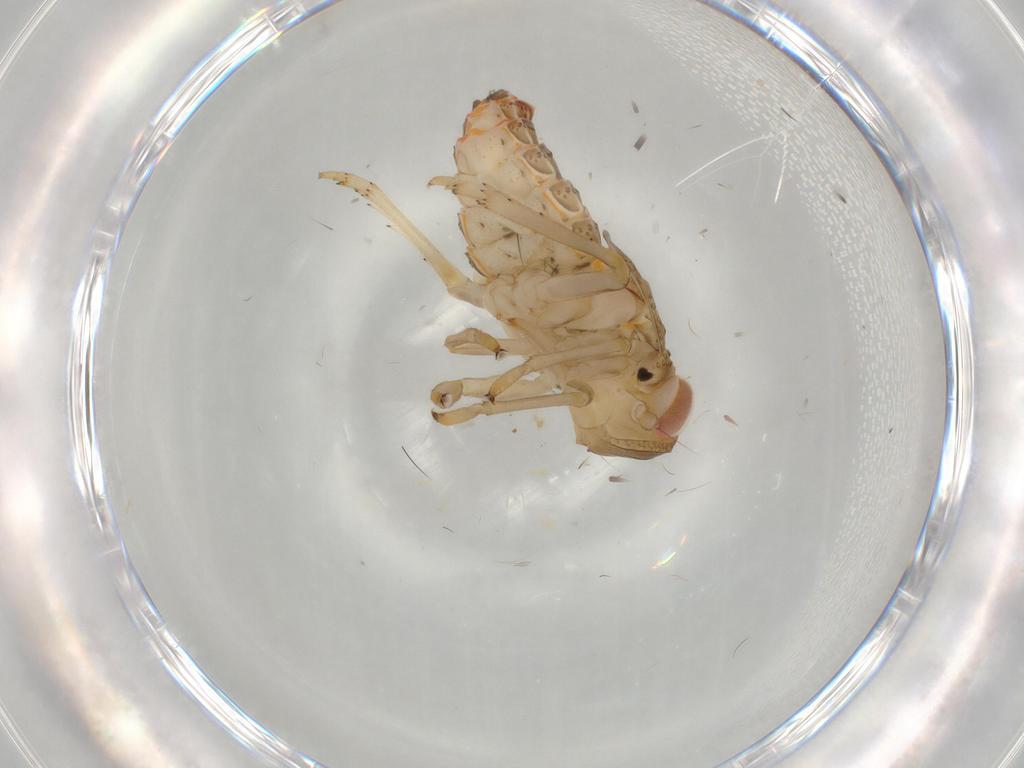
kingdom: Animalia
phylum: Arthropoda
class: Insecta
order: Hemiptera
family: Issidae
